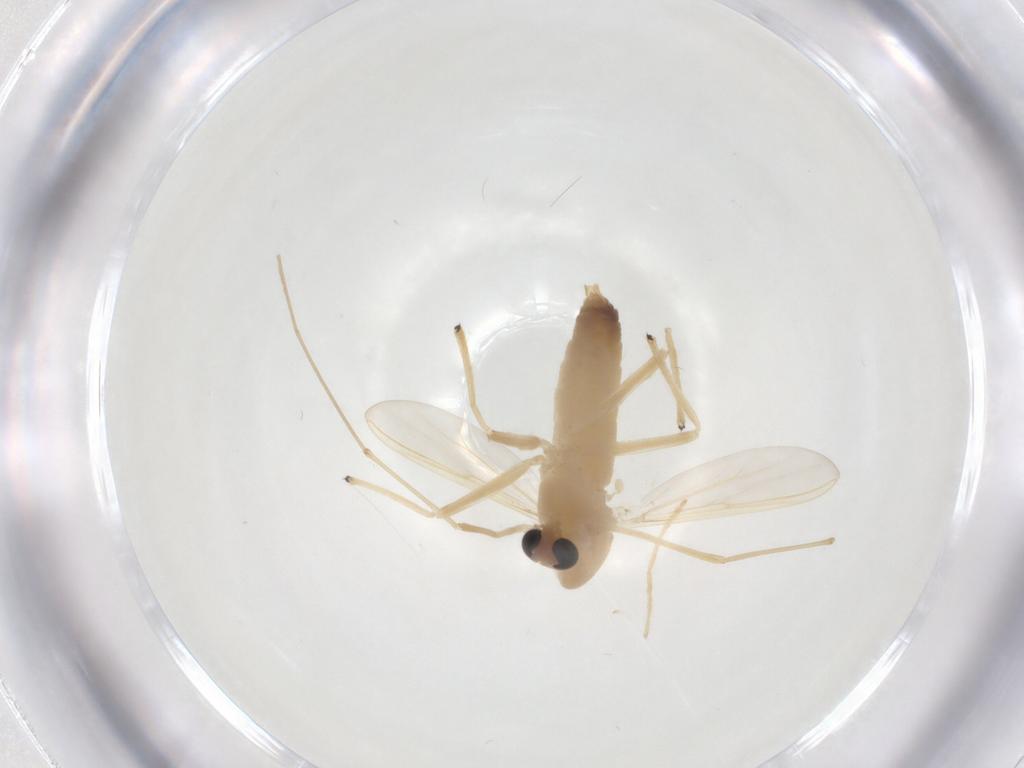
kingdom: Animalia
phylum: Arthropoda
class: Insecta
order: Diptera
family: Chironomidae
